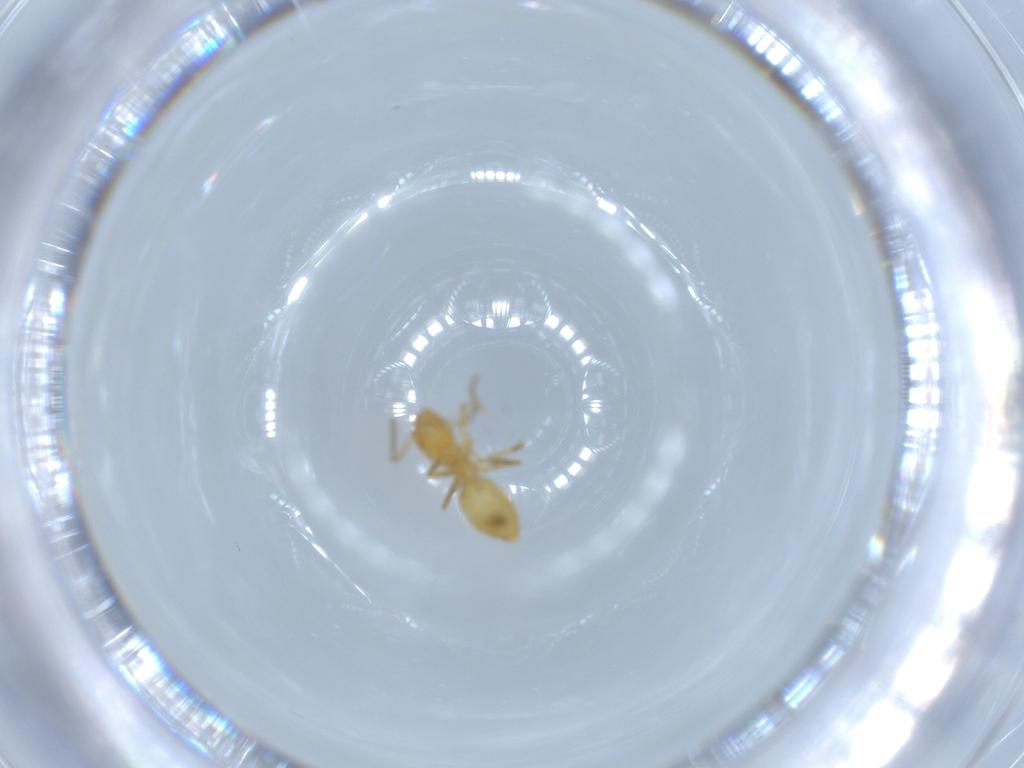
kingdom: Animalia
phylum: Arthropoda
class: Insecta
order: Hymenoptera
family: Formicidae
